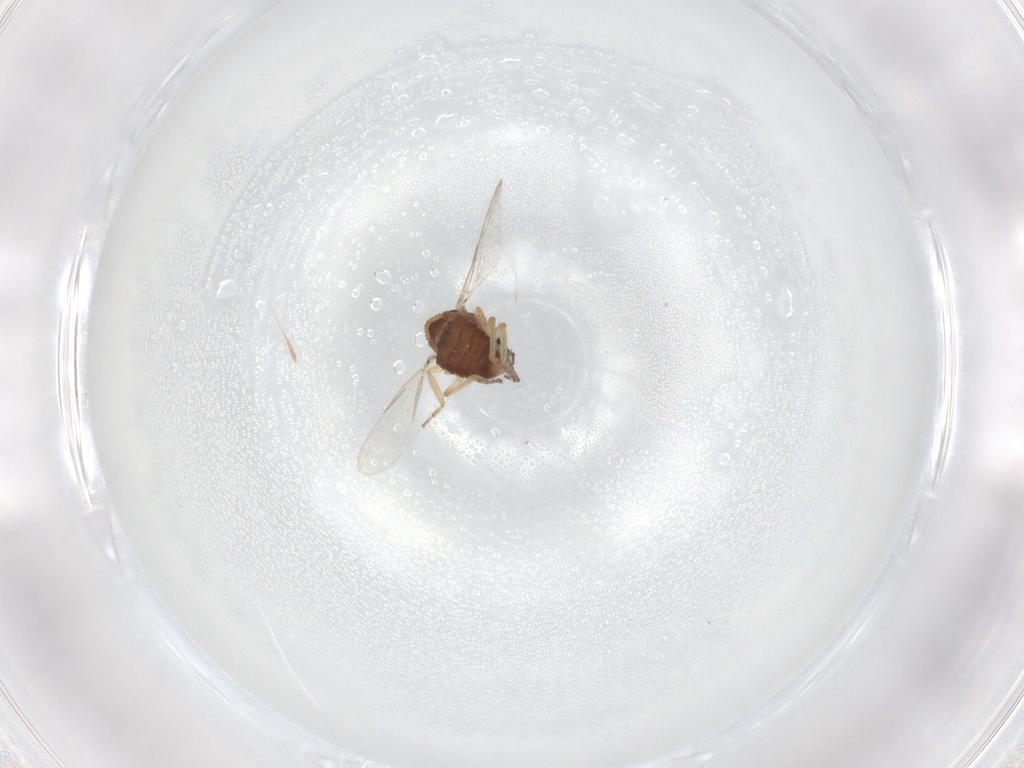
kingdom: Animalia
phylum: Arthropoda
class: Insecta
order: Diptera
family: Ceratopogonidae
